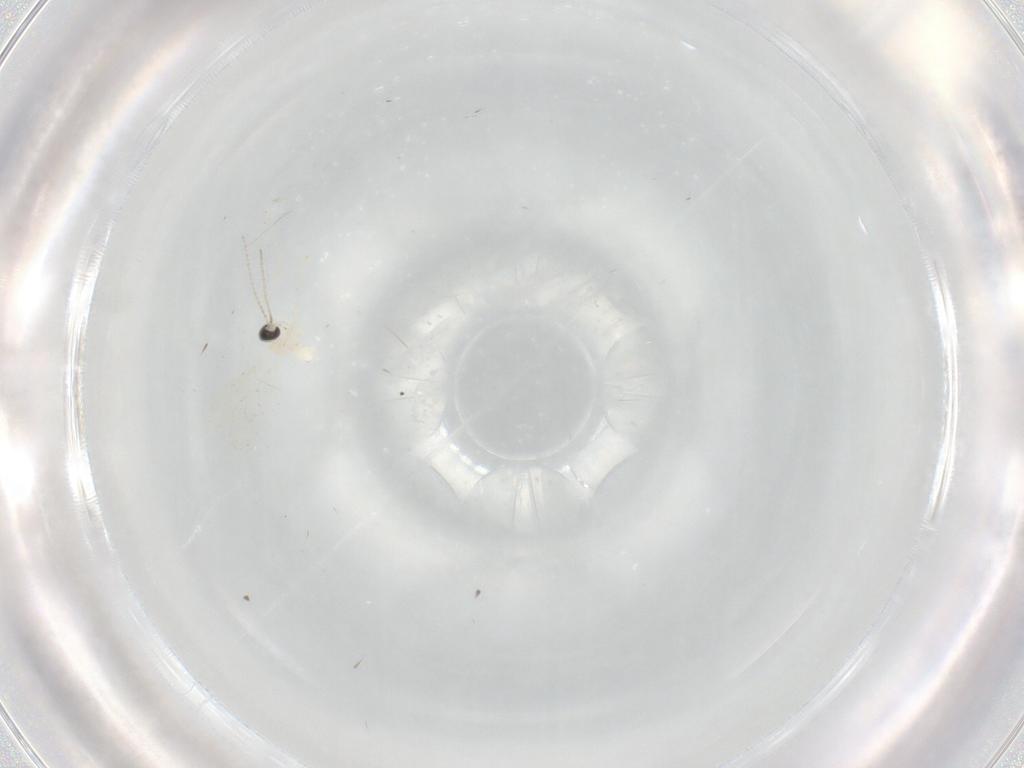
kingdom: Animalia
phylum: Arthropoda
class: Insecta
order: Diptera
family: Cecidomyiidae
